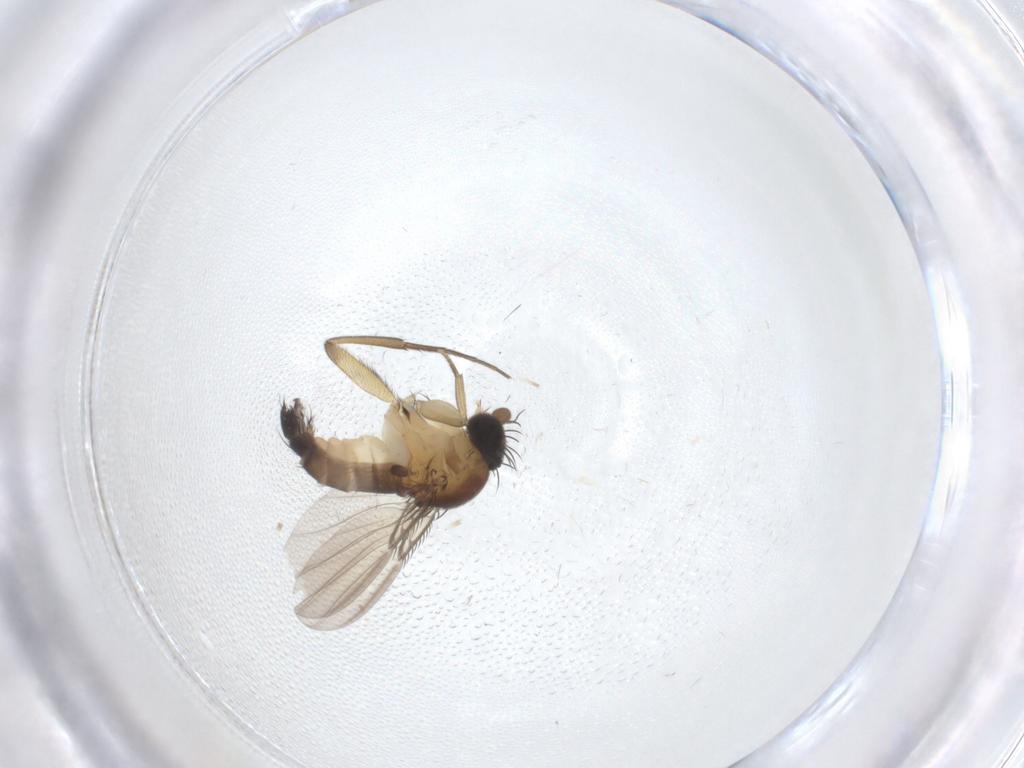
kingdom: Animalia
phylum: Arthropoda
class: Insecta
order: Diptera
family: Phoridae
